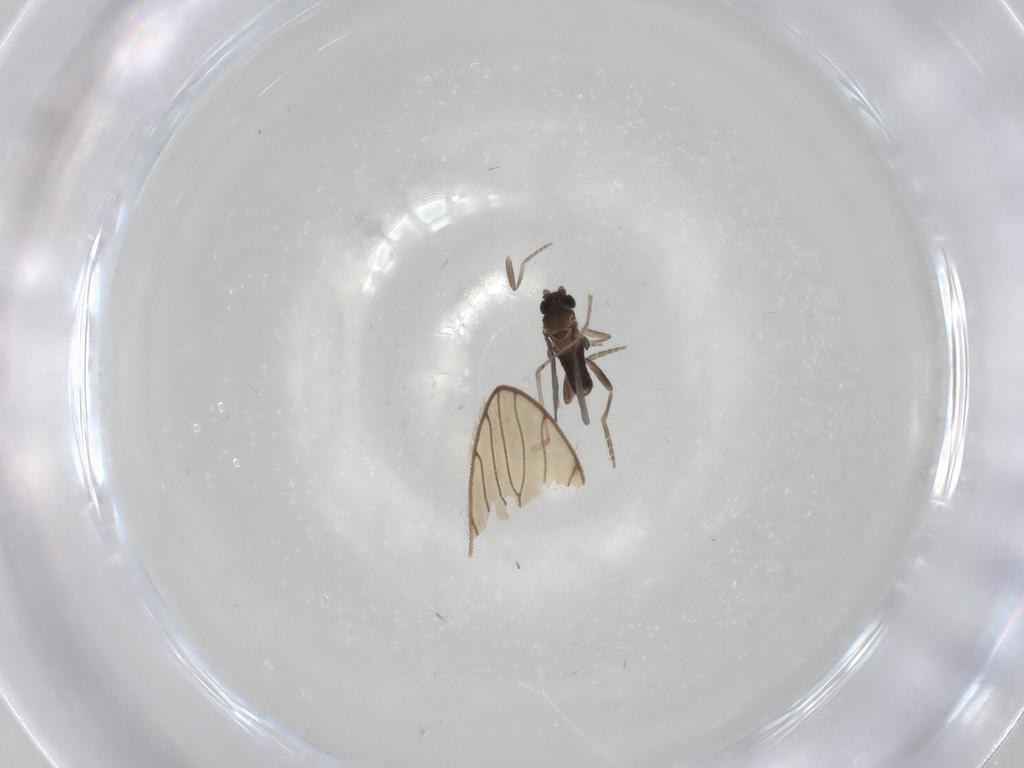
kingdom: Animalia
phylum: Arthropoda
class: Insecta
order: Diptera
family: Cecidomyiidae
